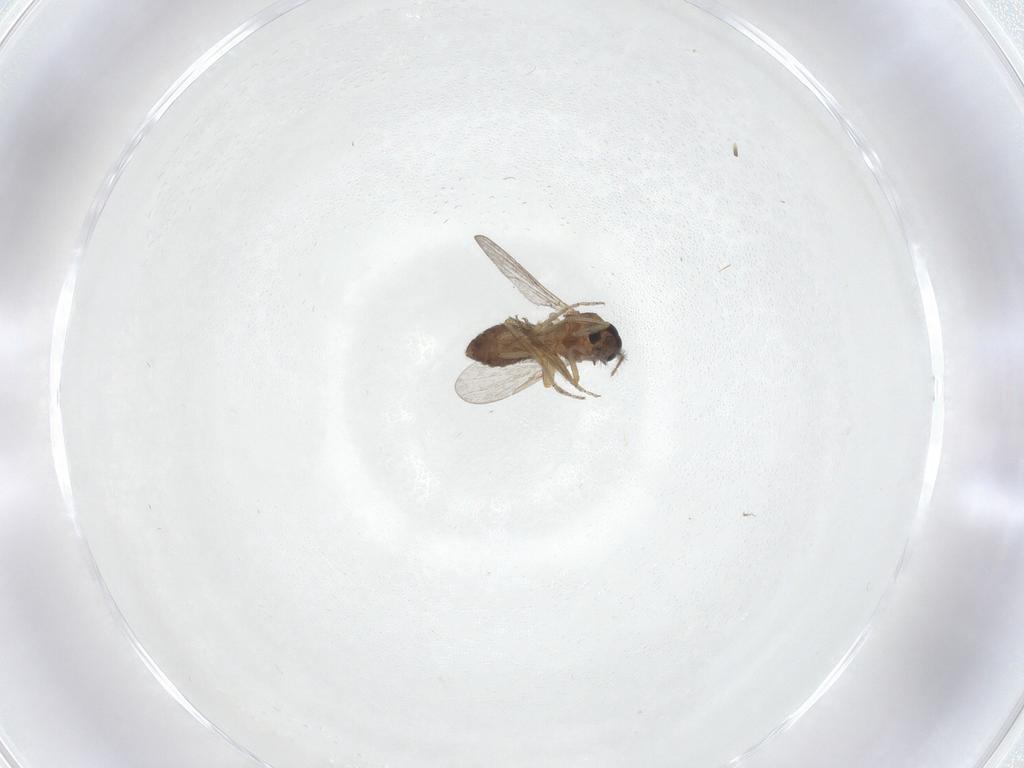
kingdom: Animalia
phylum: Arthropoda
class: Insecta
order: Diptera
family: Ceratopogonidae
